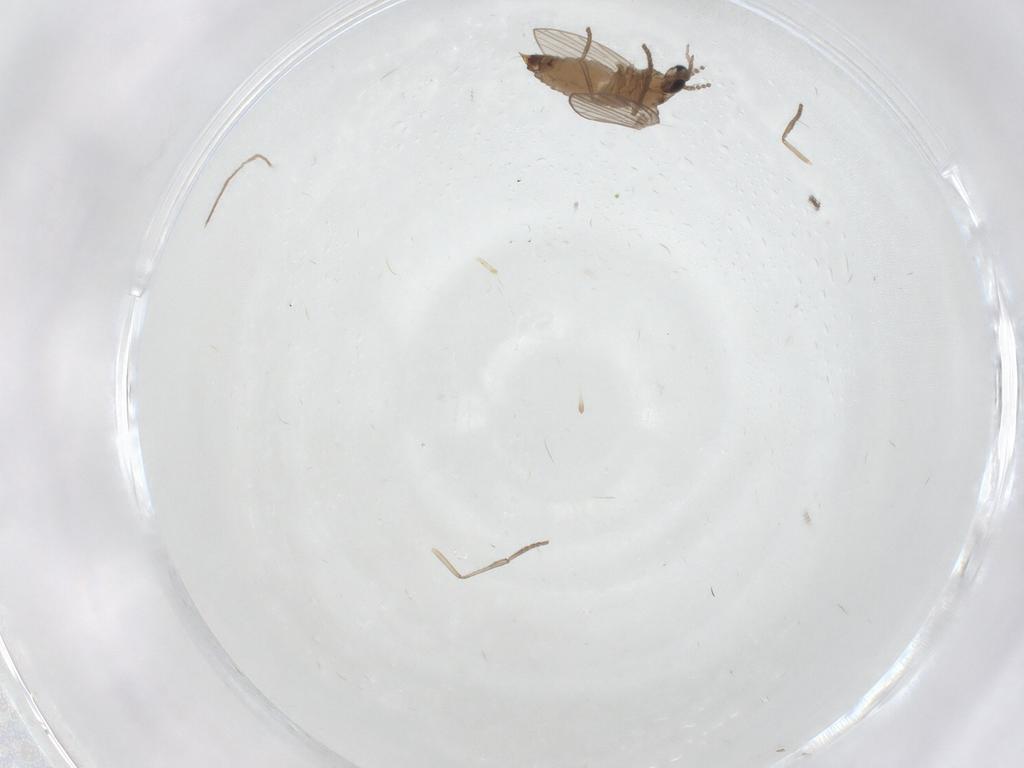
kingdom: Animalia
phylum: Arthropoda
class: Insecta
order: Diptera
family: Psychodidae
